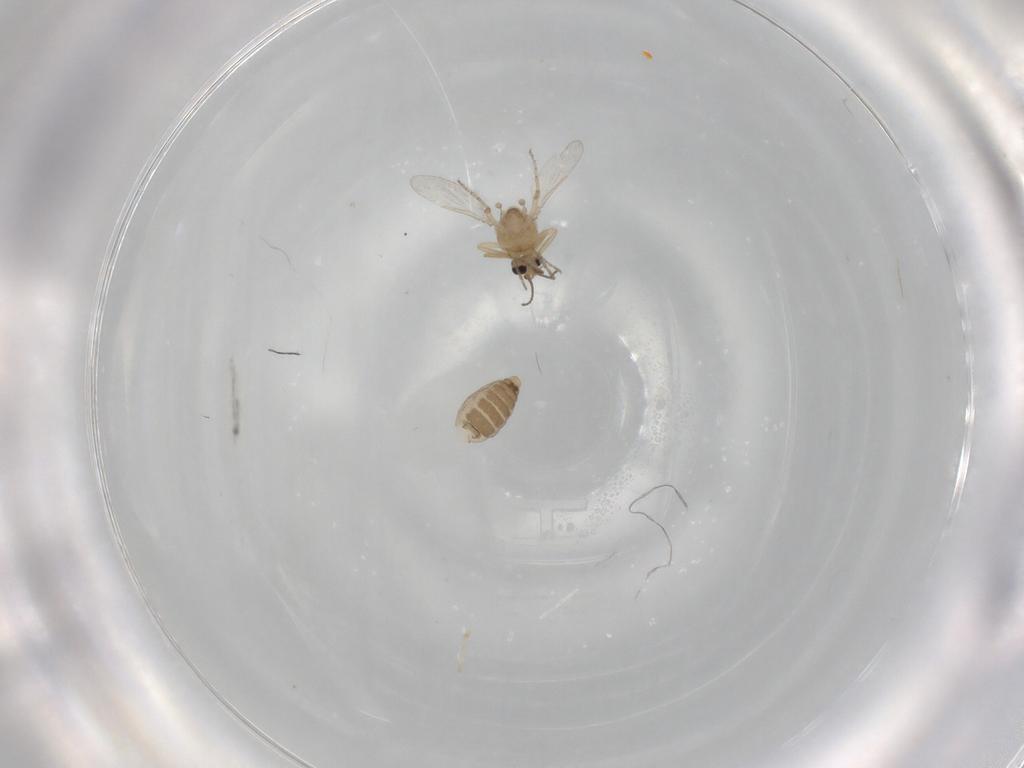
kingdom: Animalia
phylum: Arthropoda
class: Insecta
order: Diptera
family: Ceratopogonidae
